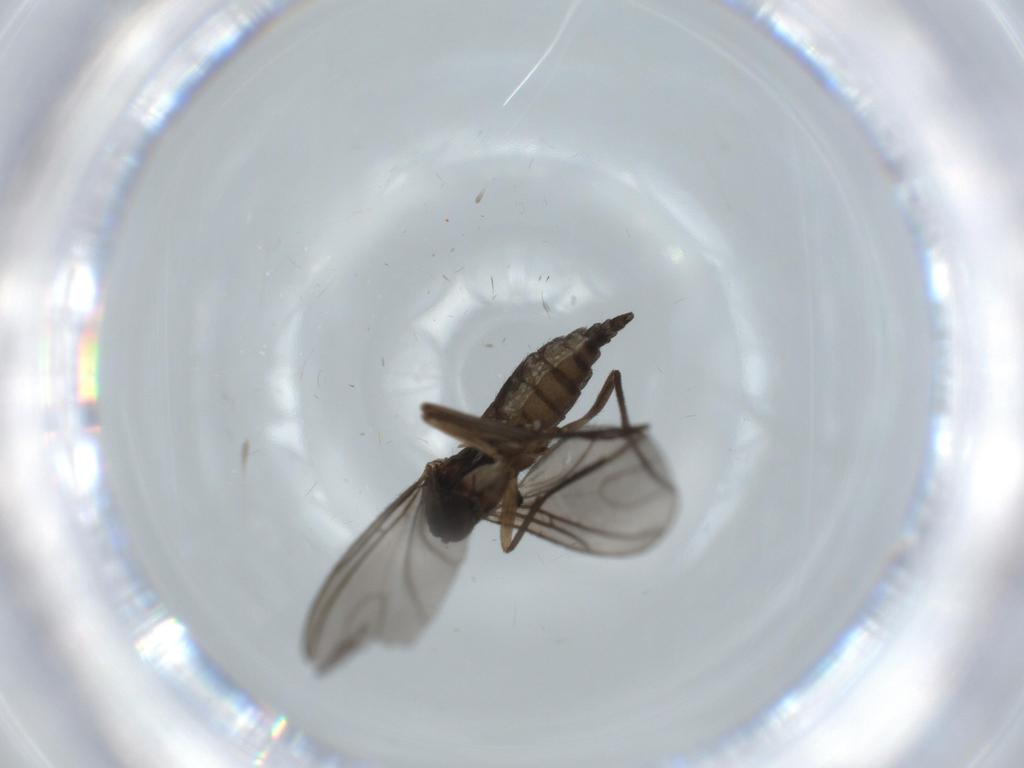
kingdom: Animalia
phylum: Arthropoda
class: Insecta
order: Diptera
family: Sciaridae
